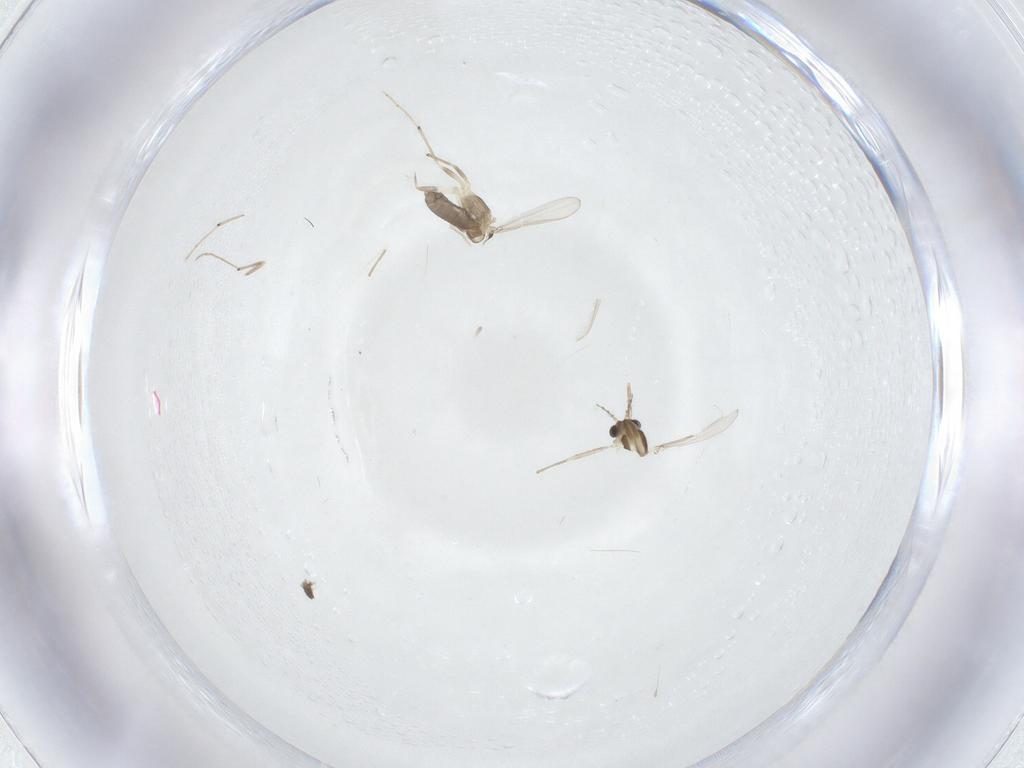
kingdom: Animalia
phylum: Arthropoda
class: Insecta
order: Diptera
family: Chironomidae
